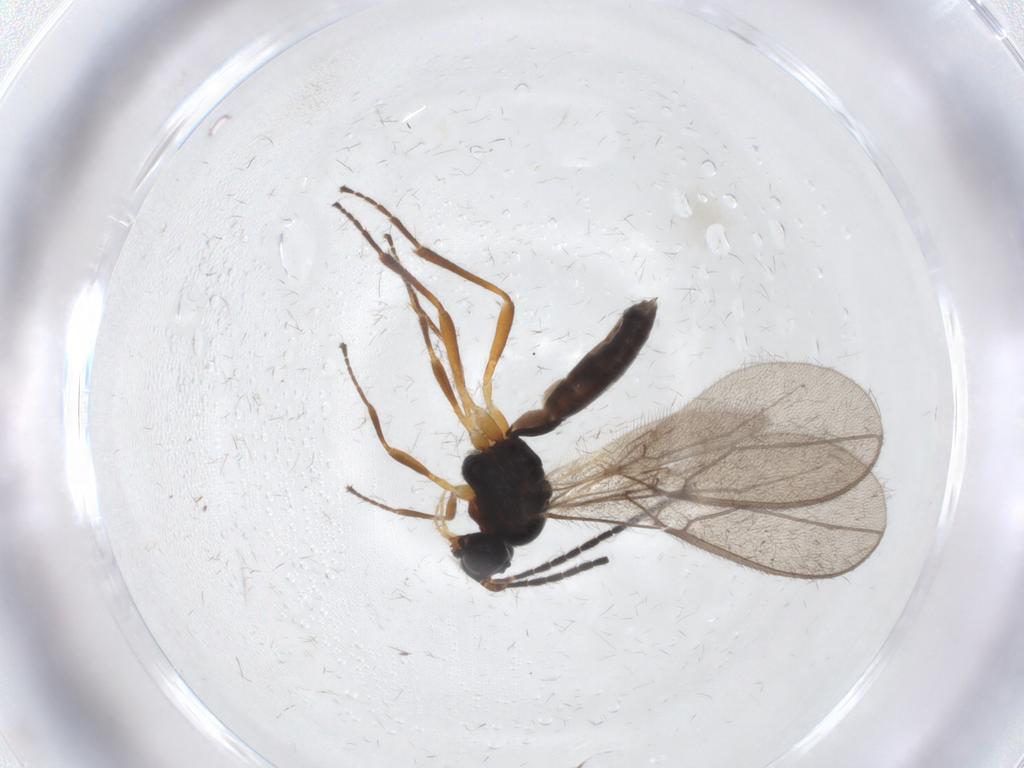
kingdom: Animalia
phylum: Arthropoda
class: Insecta
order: Hymenoptera
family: Braconidae
